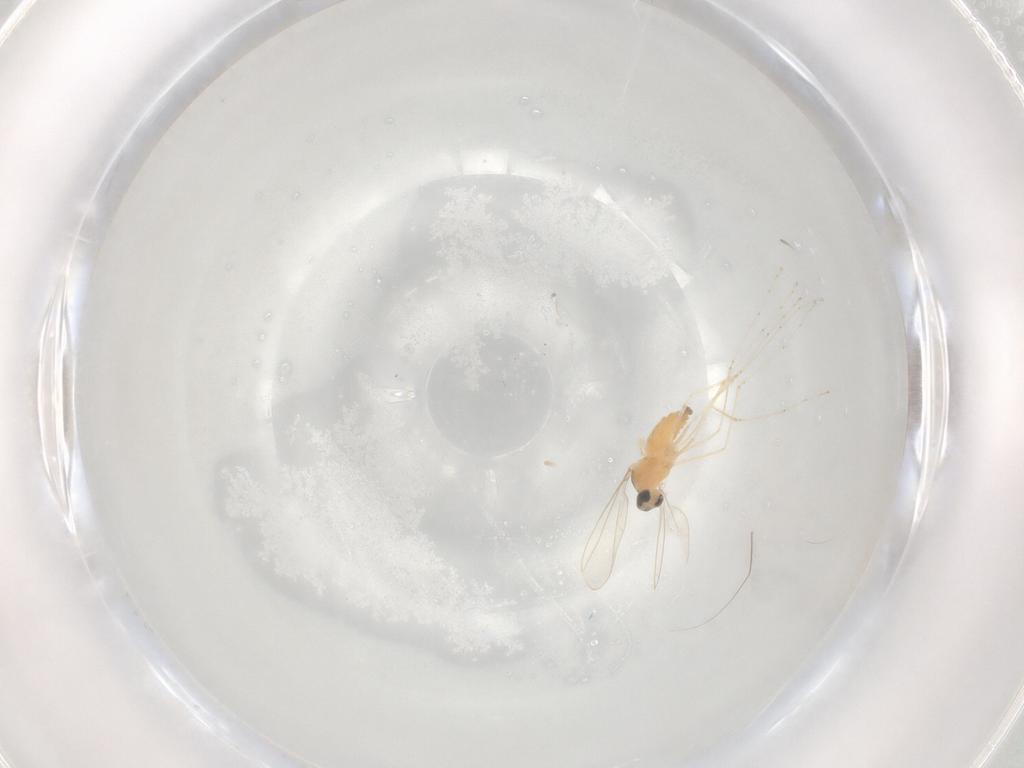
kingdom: Animalia
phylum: Arthropoda
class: Insecta
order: Diptera
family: Cecidomyiidae
